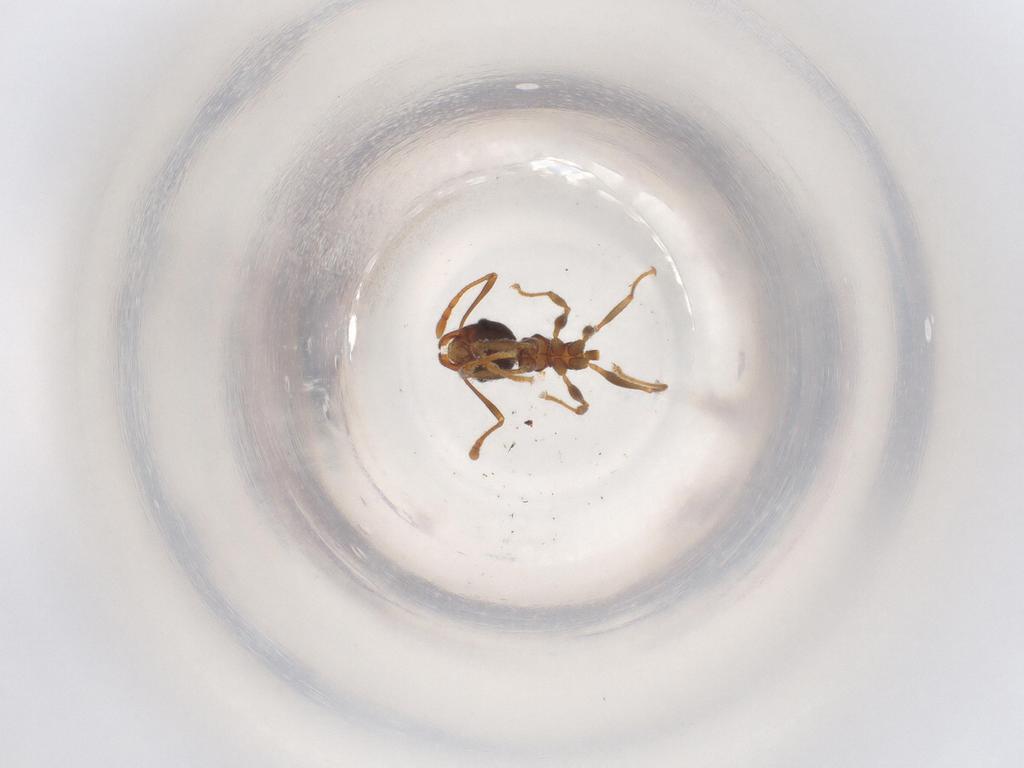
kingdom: Animalia
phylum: Arthropoda
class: Insecta
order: Hymenoptera
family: Formicidae
